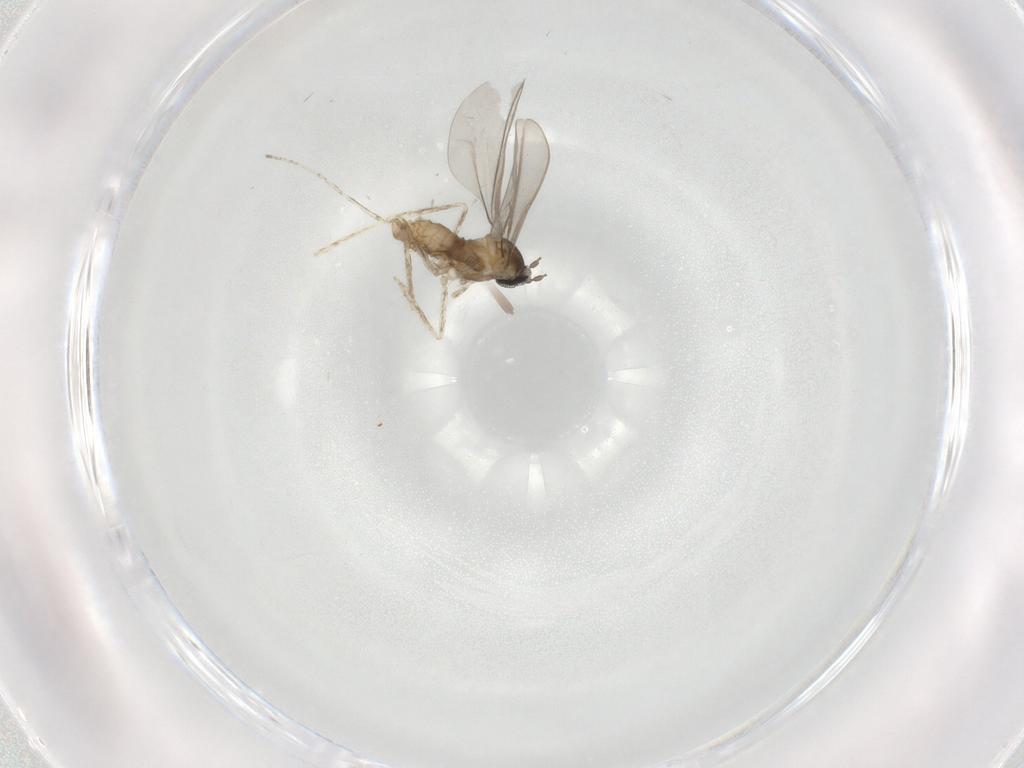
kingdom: Animalia
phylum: Arthropoda
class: Insecta
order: Diptera
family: Cecidomyiidae
